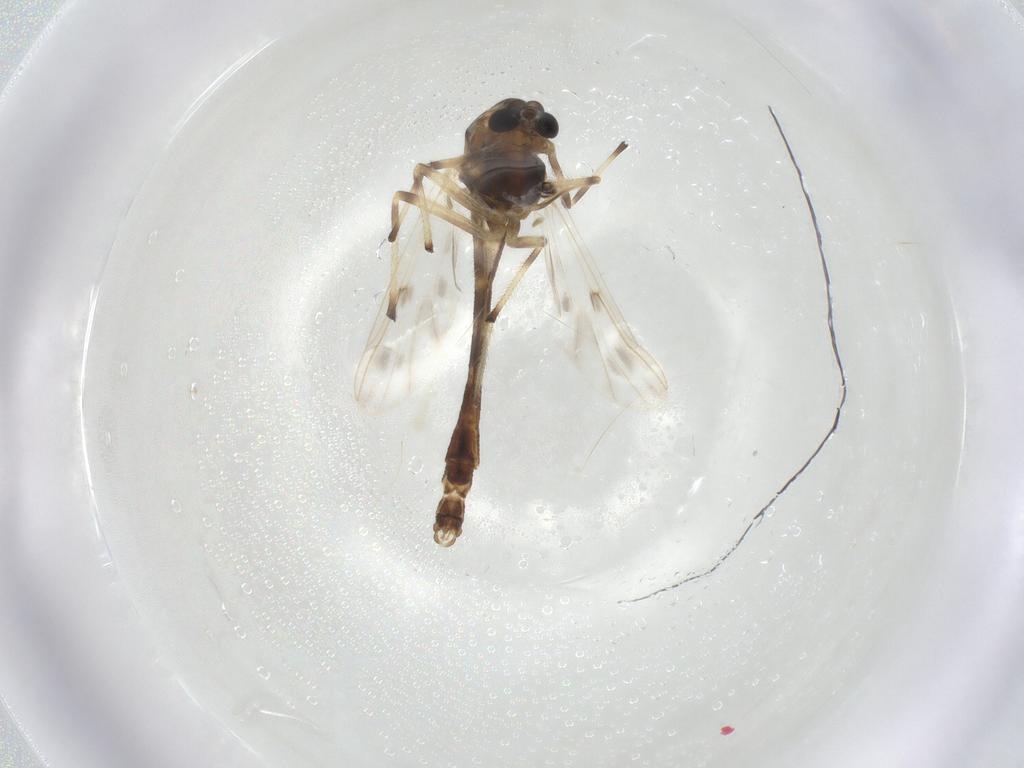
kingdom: Animalia
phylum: Arthropoda
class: Insecta
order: Diptera
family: Chironomidae
